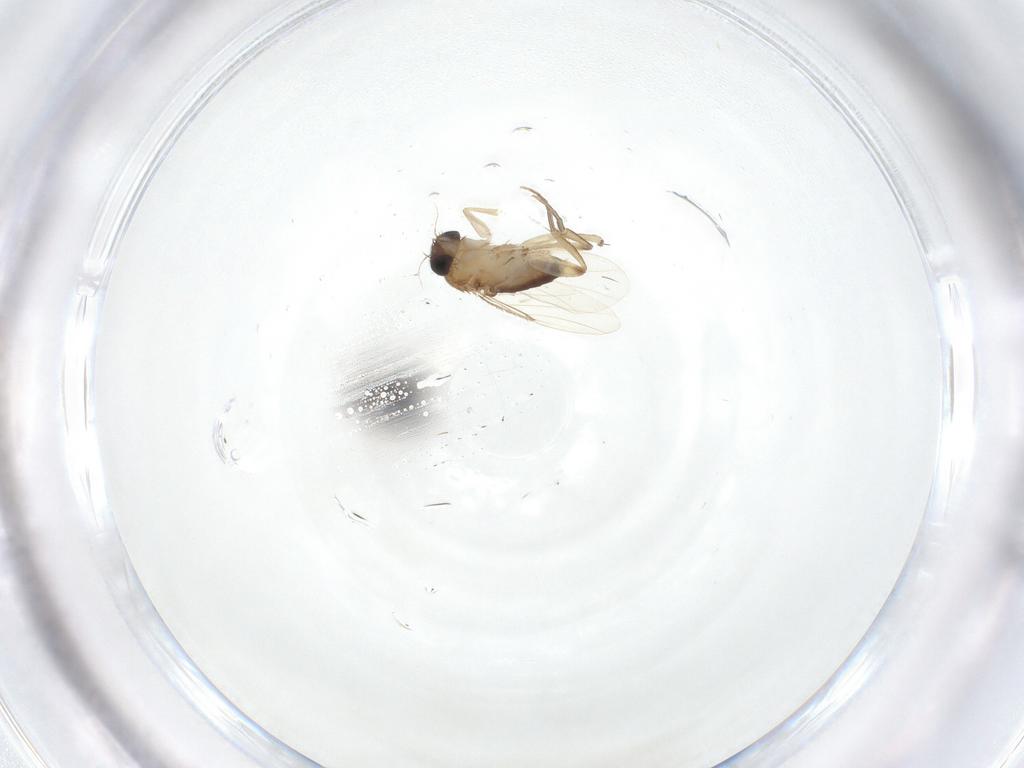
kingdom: Animalia
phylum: Arthropoda
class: Insecta
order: Diptera
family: Phoridae
